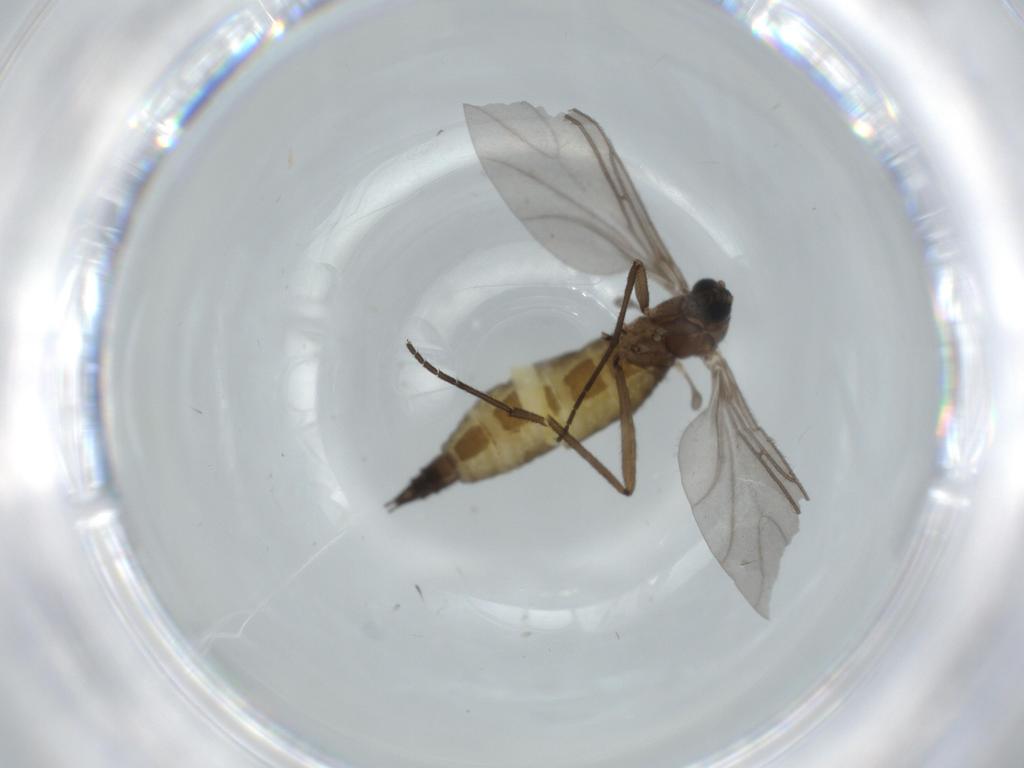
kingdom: Animalia
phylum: Arthropoda
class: Insecta
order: Diptera
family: Sciaridae
